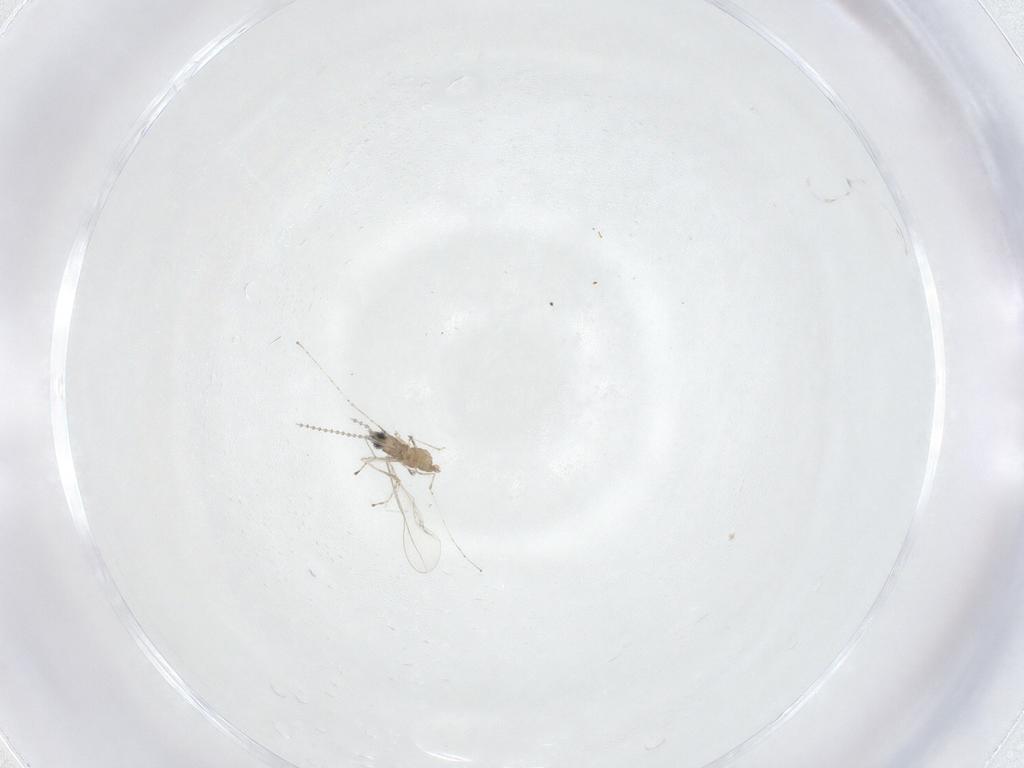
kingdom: Animalia
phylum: Arthropoda
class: Insecta
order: Diptera
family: Cecidomyiidae
